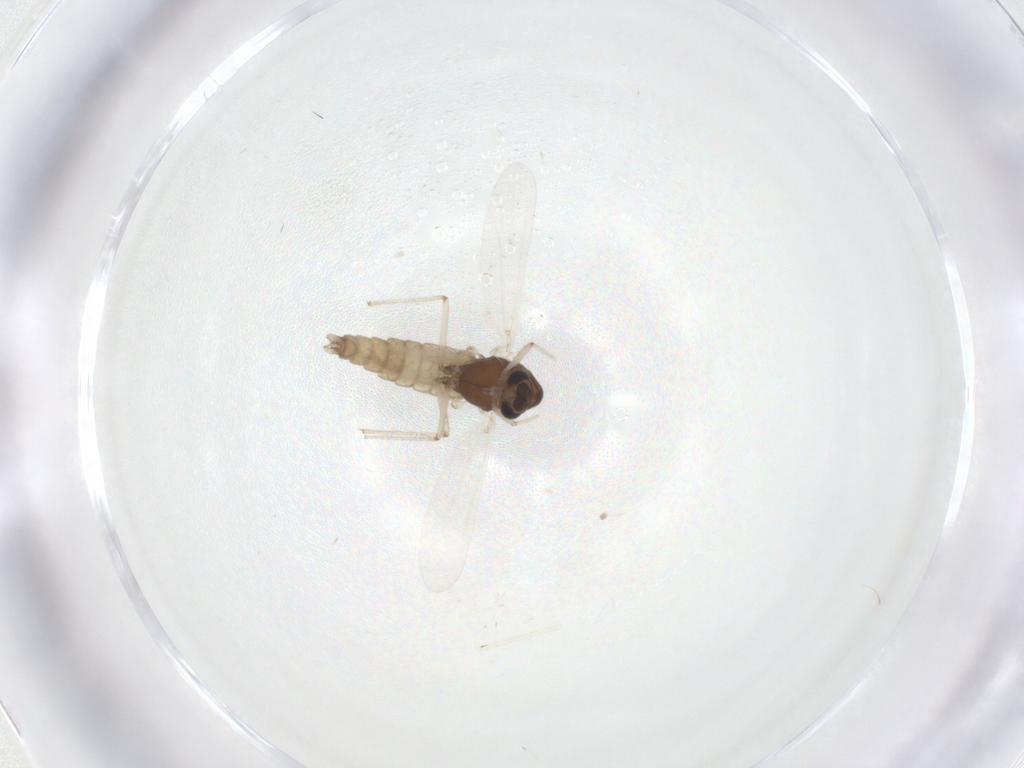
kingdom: Animalia
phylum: Arthropoda
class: Insecta
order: Diptera
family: Chironomidae
